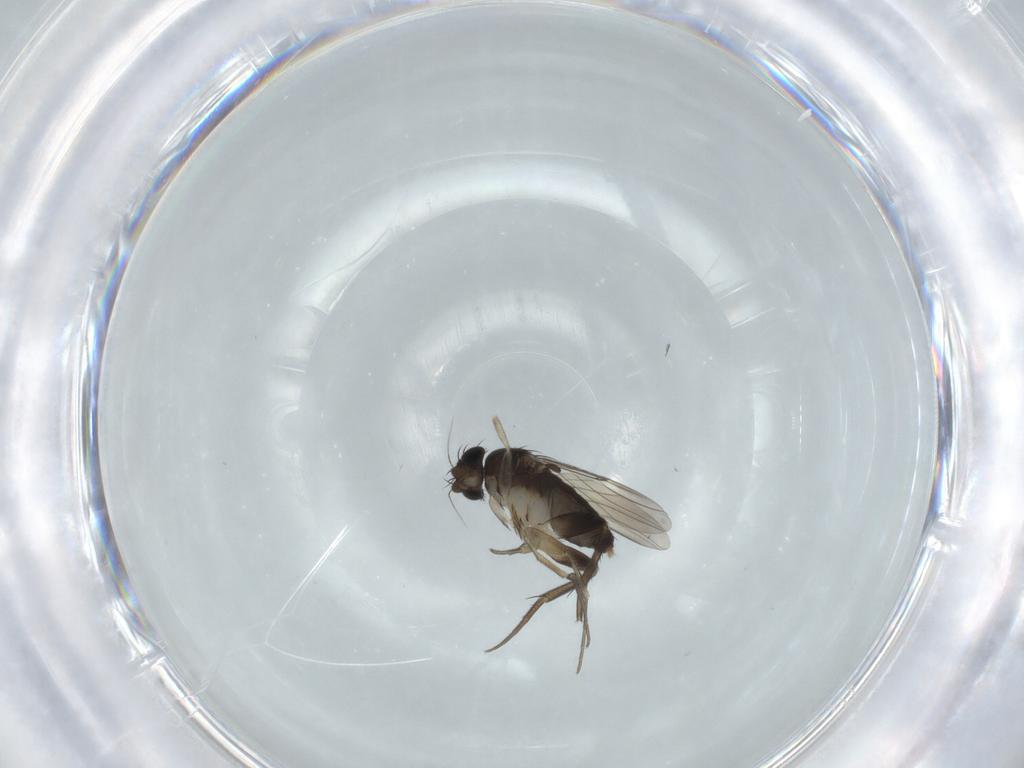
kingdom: Animalia
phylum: Arthropoda
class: Insecta
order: Diptera
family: Phoridae
